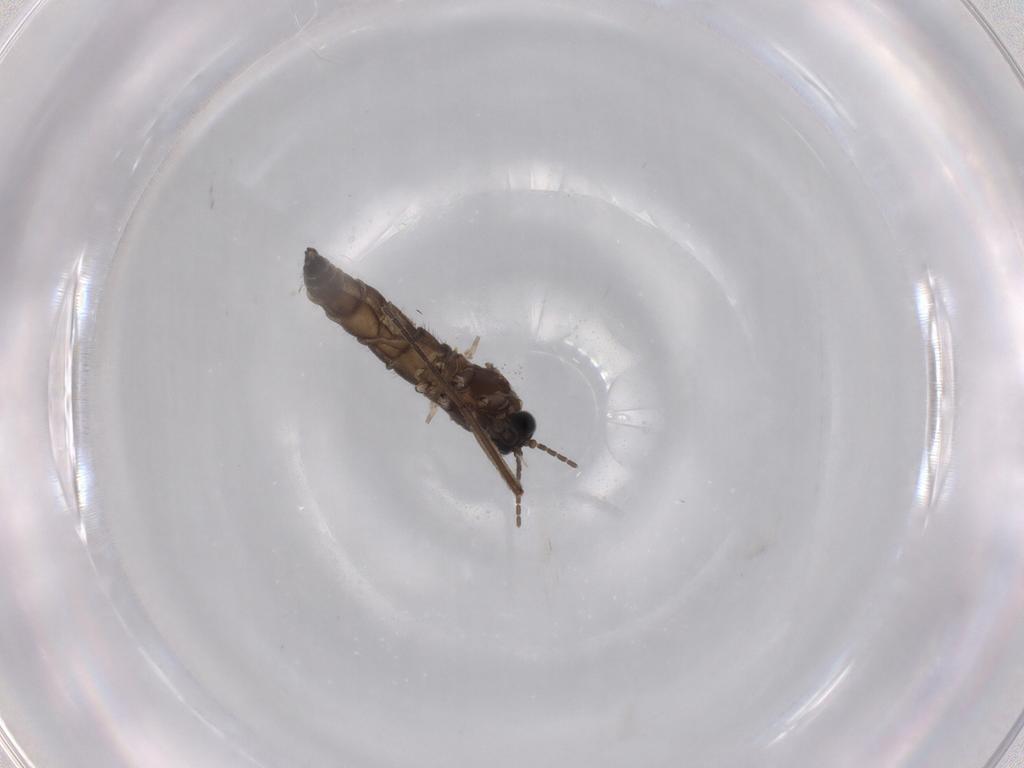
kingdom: Animalia
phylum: Arthropoda
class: Insecta
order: Diptera
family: Sciaridae
